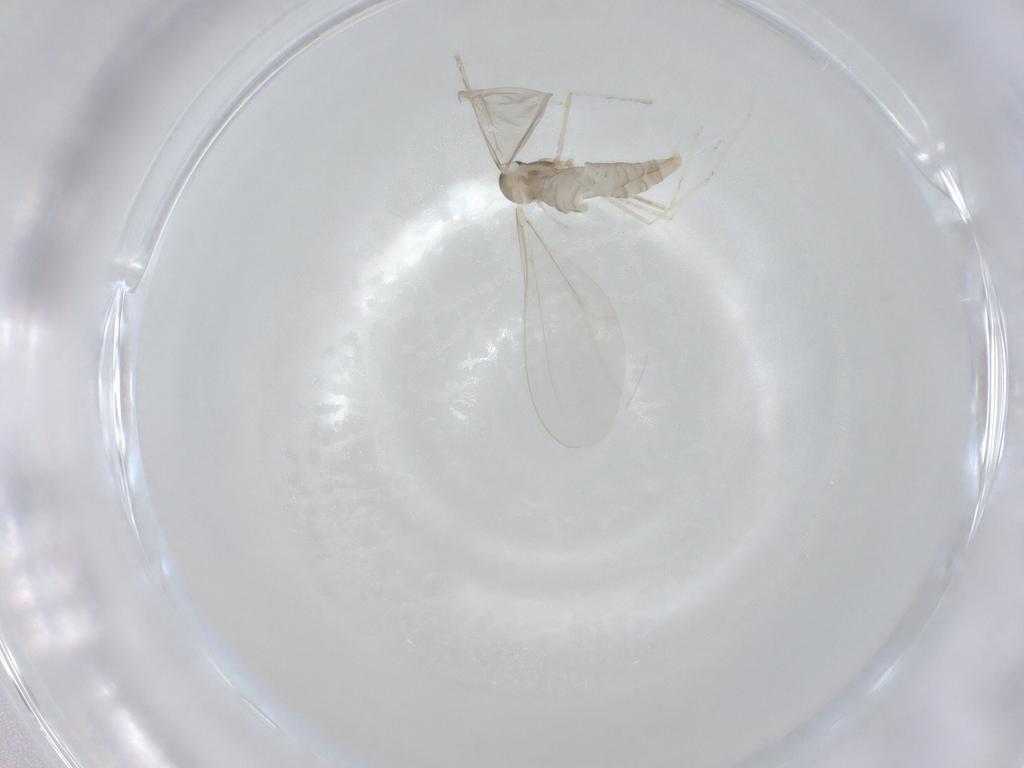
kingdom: Animalia
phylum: Arthropoda
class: Insecta
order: Diptera
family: Cecidomyiidae
